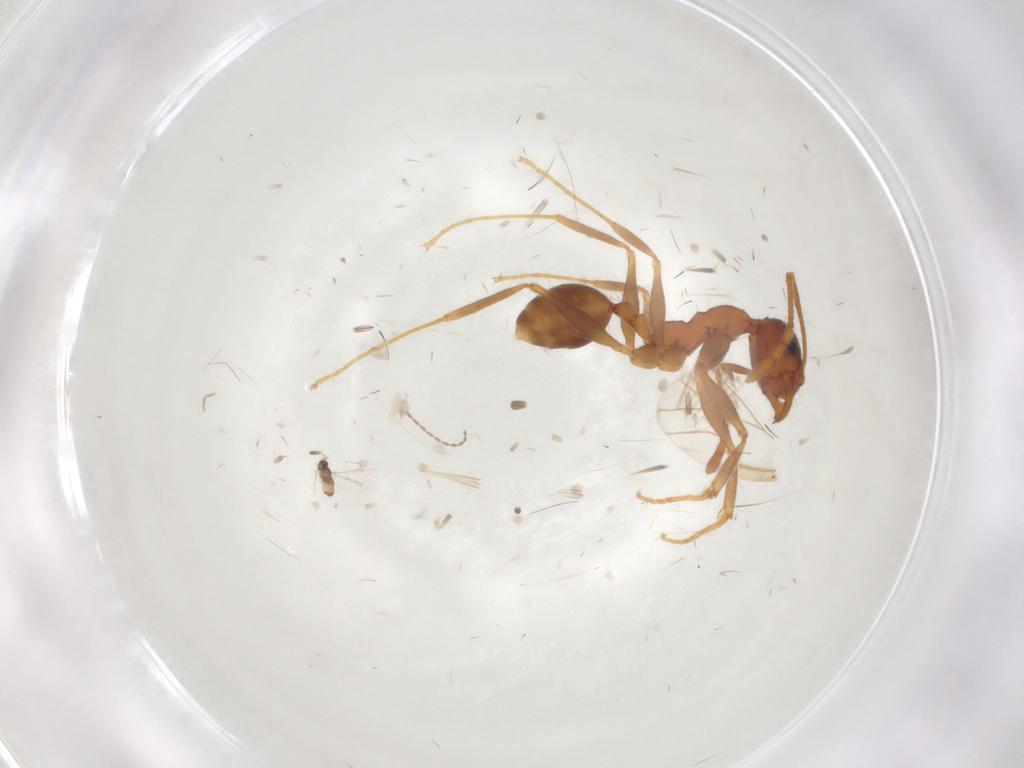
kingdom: Animalia
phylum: Arthropoda
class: Insecta
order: Hymenoptera
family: Formicidae
